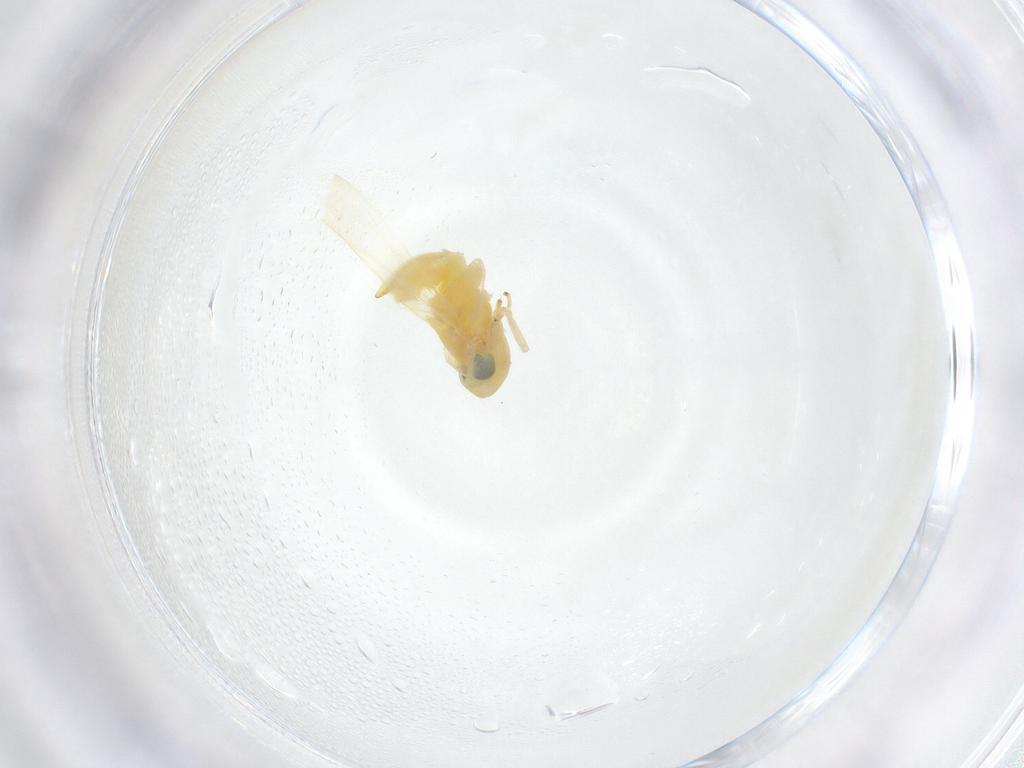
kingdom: Animalia
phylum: Arthropoda
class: Insecta
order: Hemiptera
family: Cicadellidae
